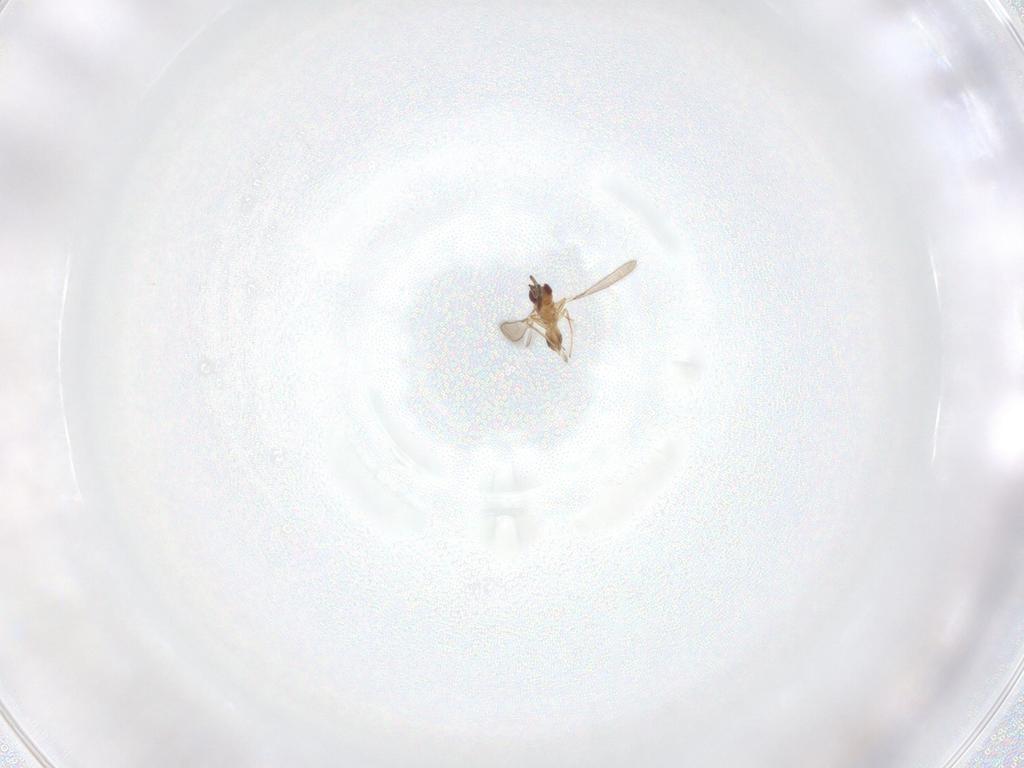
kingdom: Animalia
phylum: Arthropoda
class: Insecta
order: Hymenoptera
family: Mymaridae
